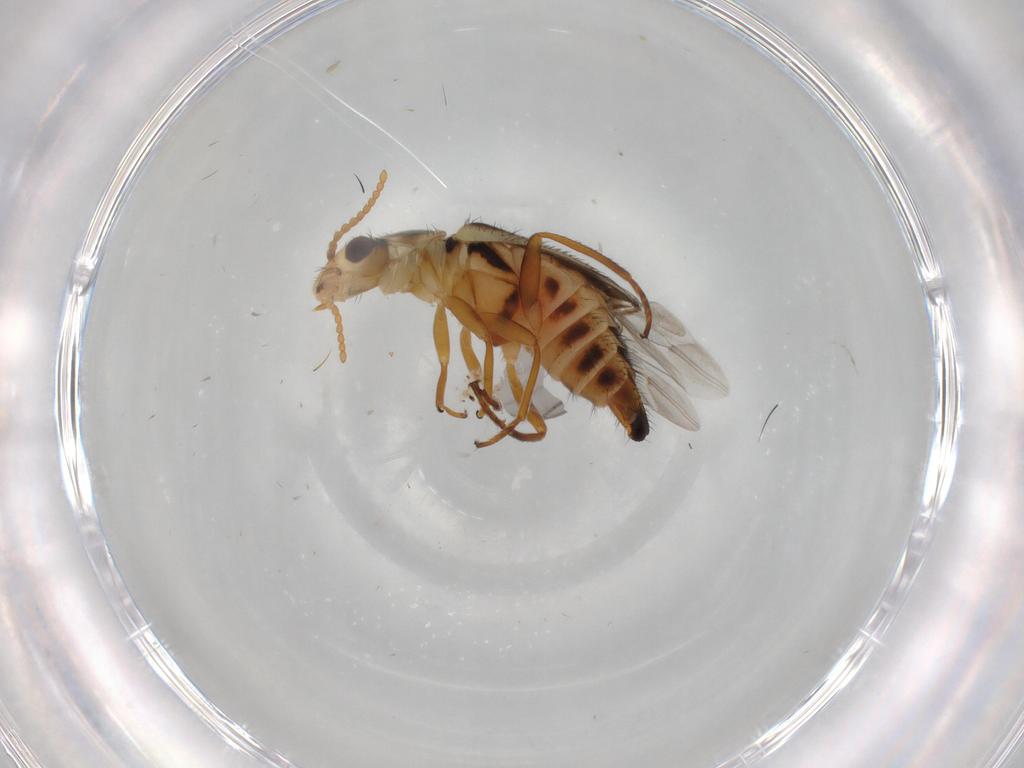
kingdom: Animalia
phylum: Arthropoda
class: Insecta
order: Coleoptera
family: Melyridae
